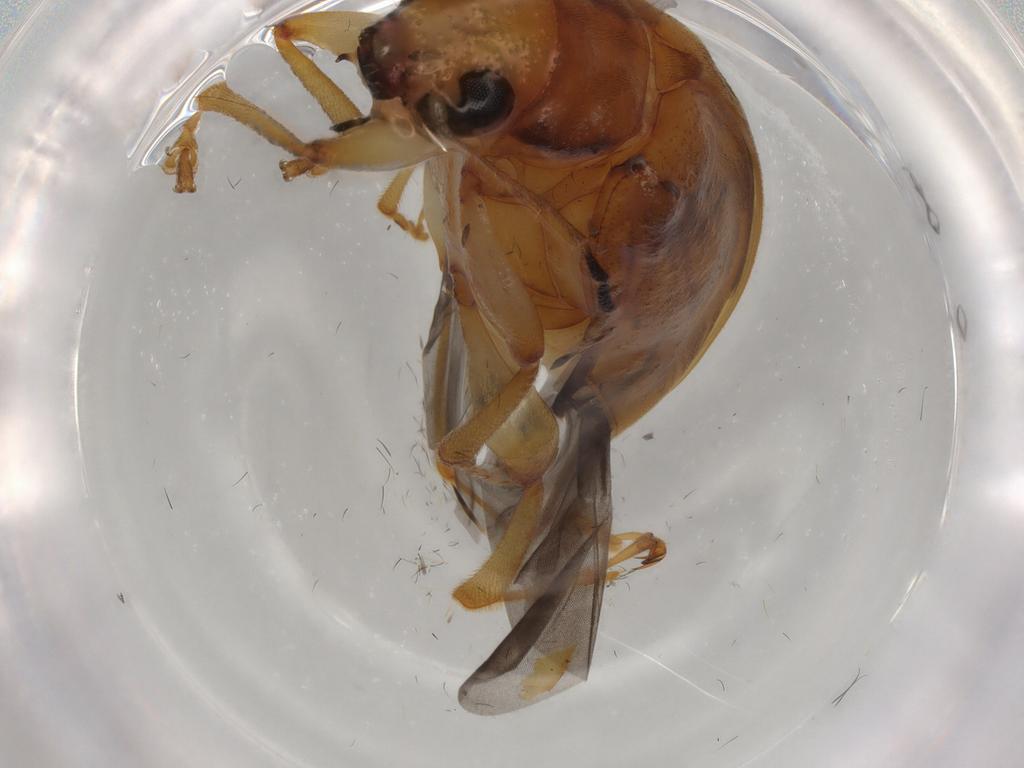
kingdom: Animalia
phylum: Arthropoda
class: Insecta
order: Coleoptera
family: Chrysomelidae
